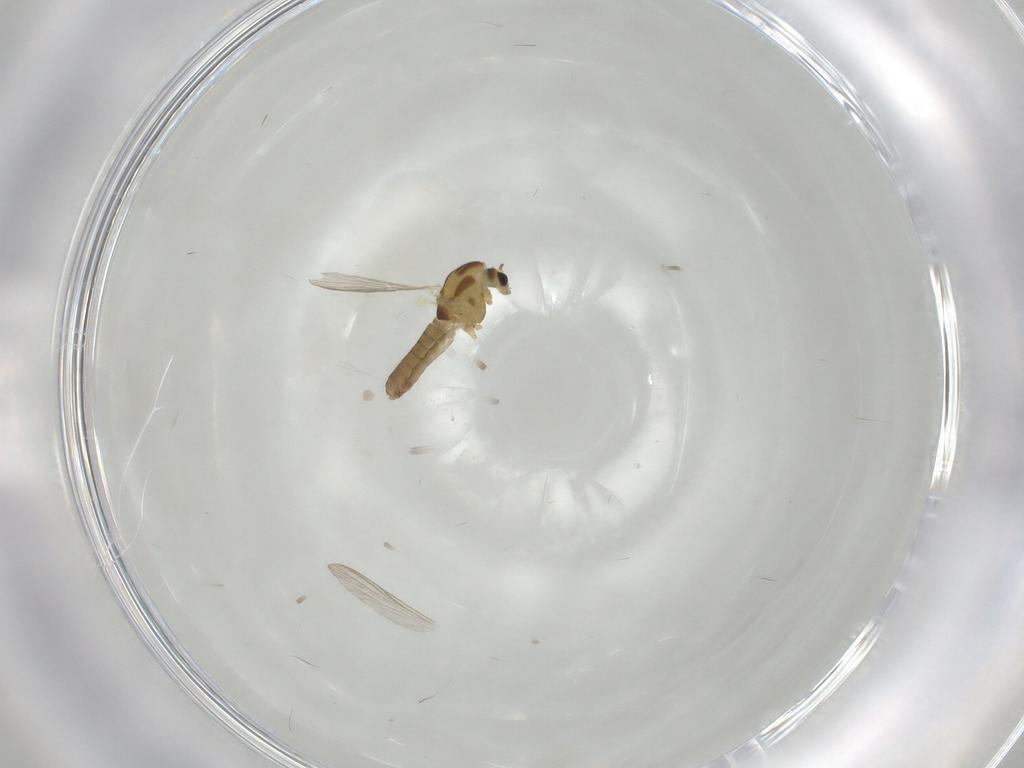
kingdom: Animalia
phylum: Arthropoda
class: Insecta
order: Diptera
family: Chironomidae
